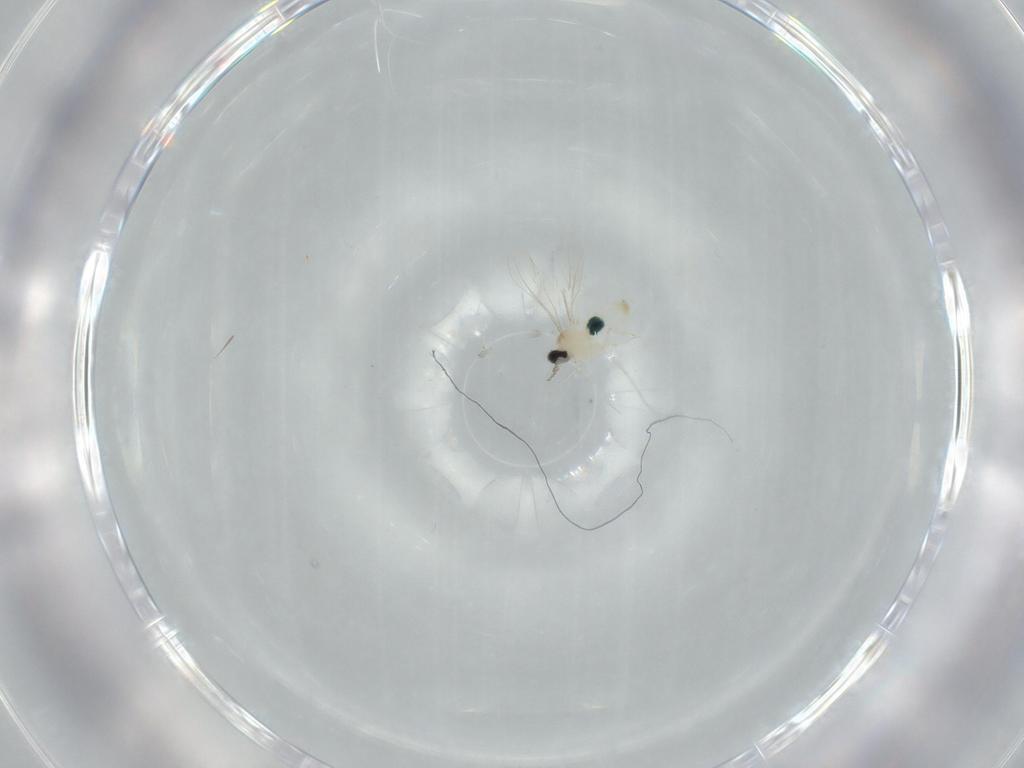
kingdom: Animalia
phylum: Arthropoda
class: Insecta
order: Diptera
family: Cecidomyiidae
